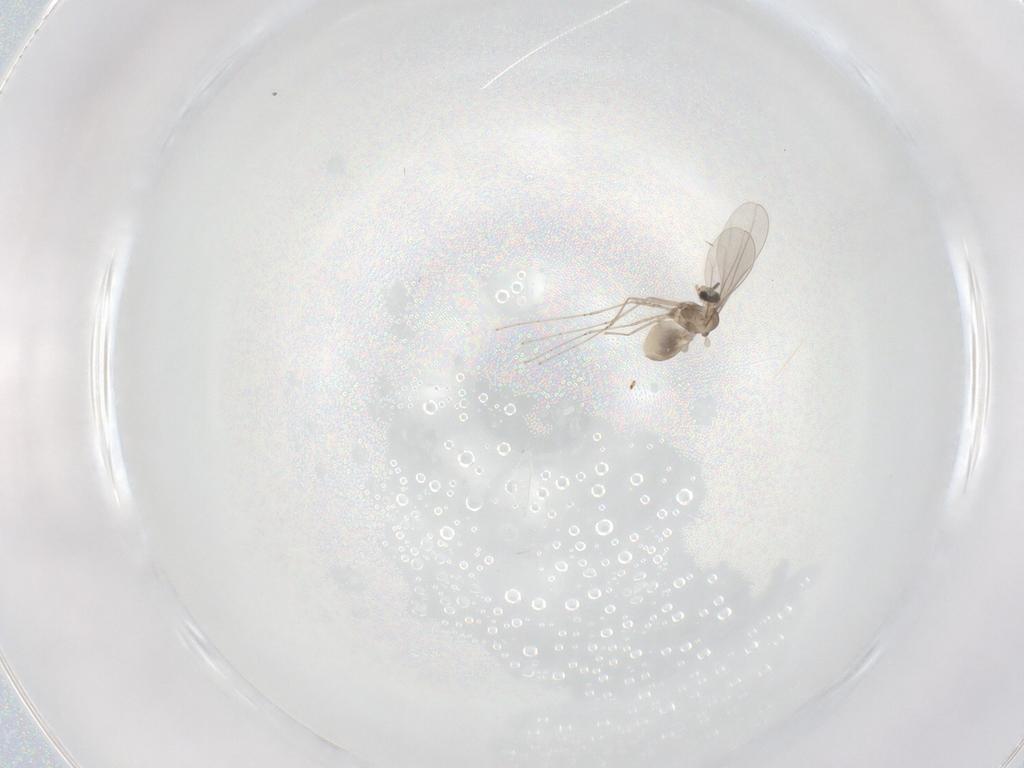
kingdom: Animalia
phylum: Arthropoda
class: Insecta
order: Diptera
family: Cecidomyiidae
